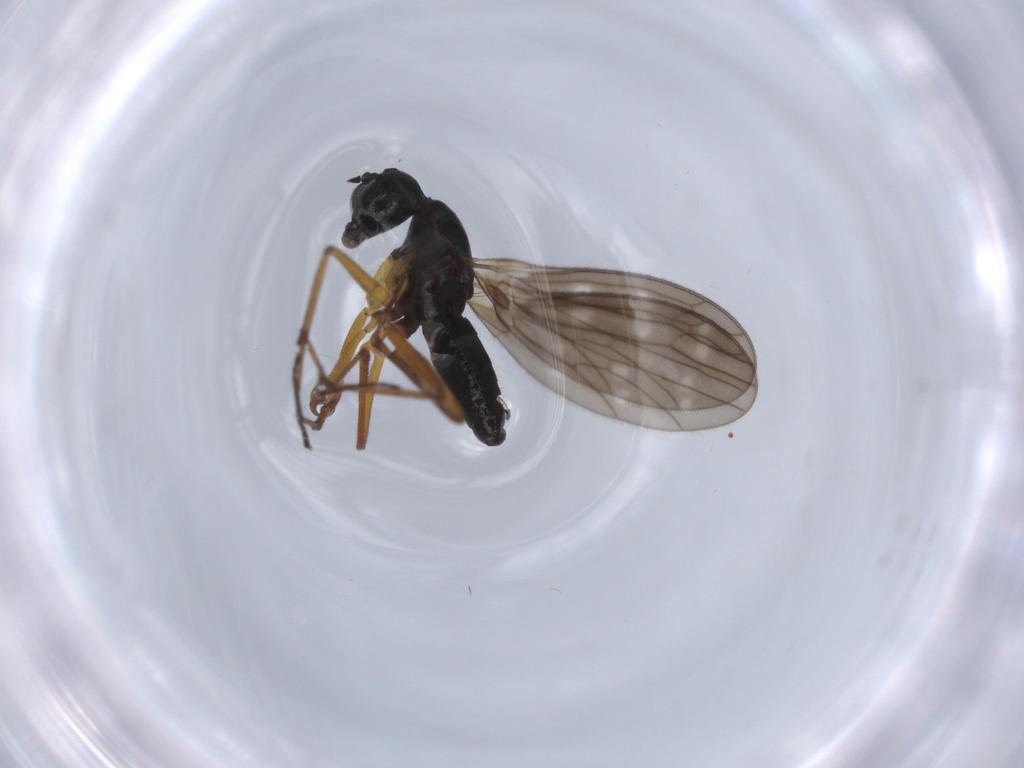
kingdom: Animalia
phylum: Arthropoda
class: Insecta
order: Diptera
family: Empididae
